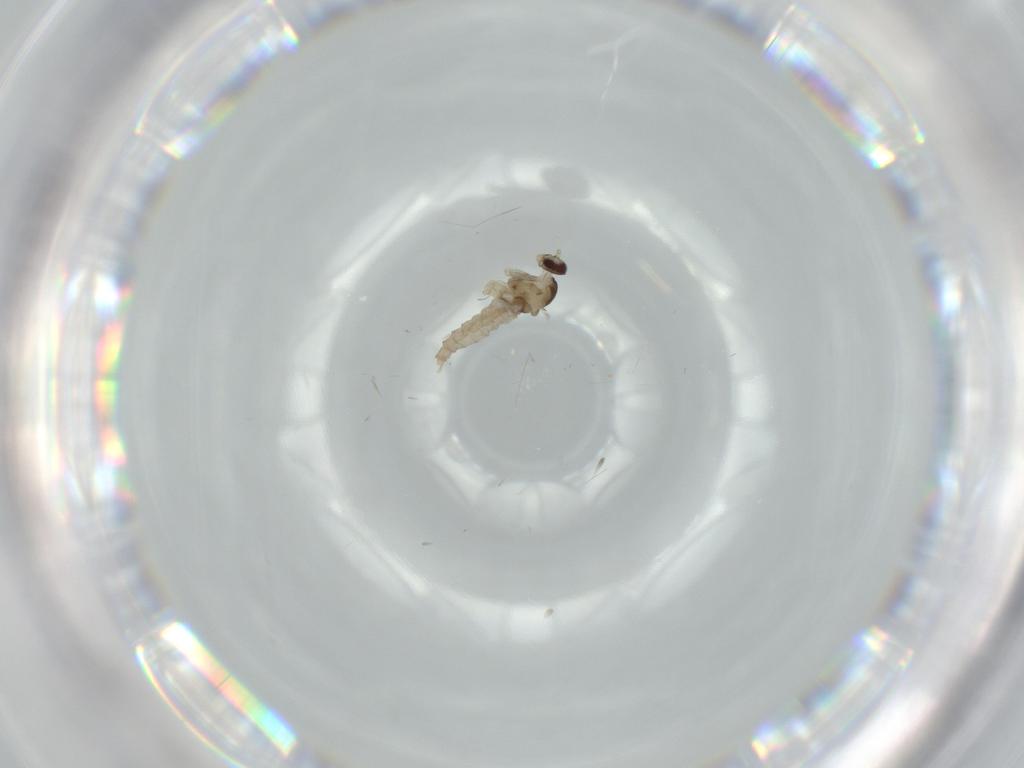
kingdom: Animalia
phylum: Arthropoda
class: Insecta
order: Diptera
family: Cecidomyiidae
